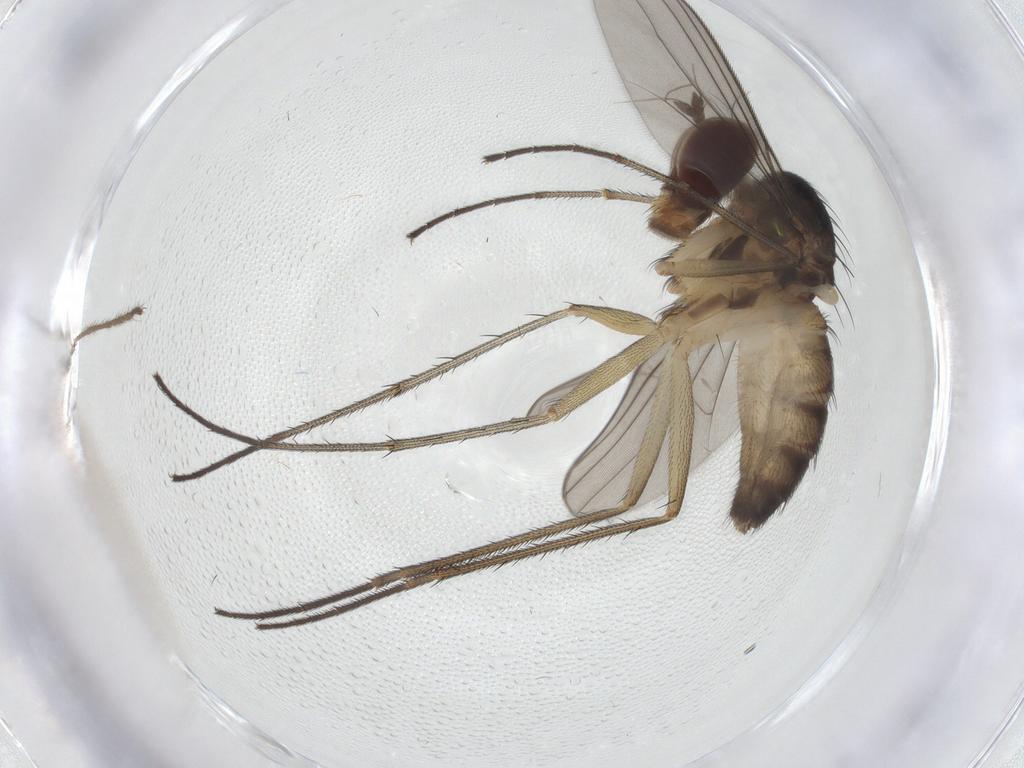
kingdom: Animalia
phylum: Arthropoda
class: Insecta
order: Diptera
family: Dolichopodidae
